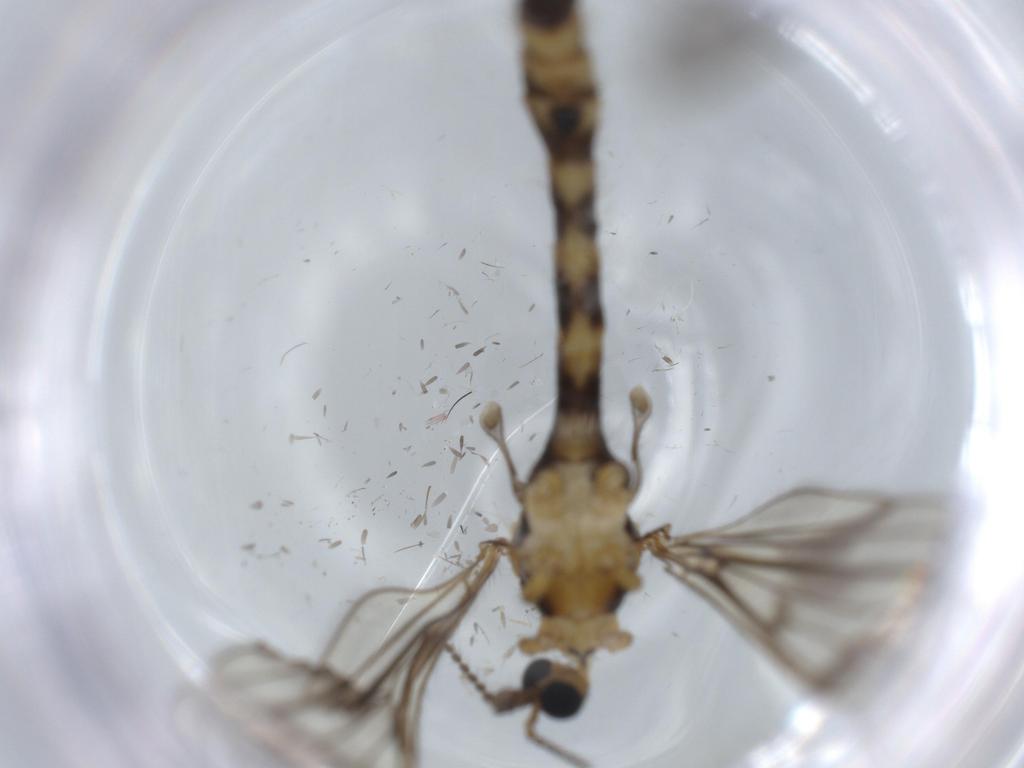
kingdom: Animalia
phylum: Arthropoda
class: Insecta
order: Diptera
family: Limoniidae
